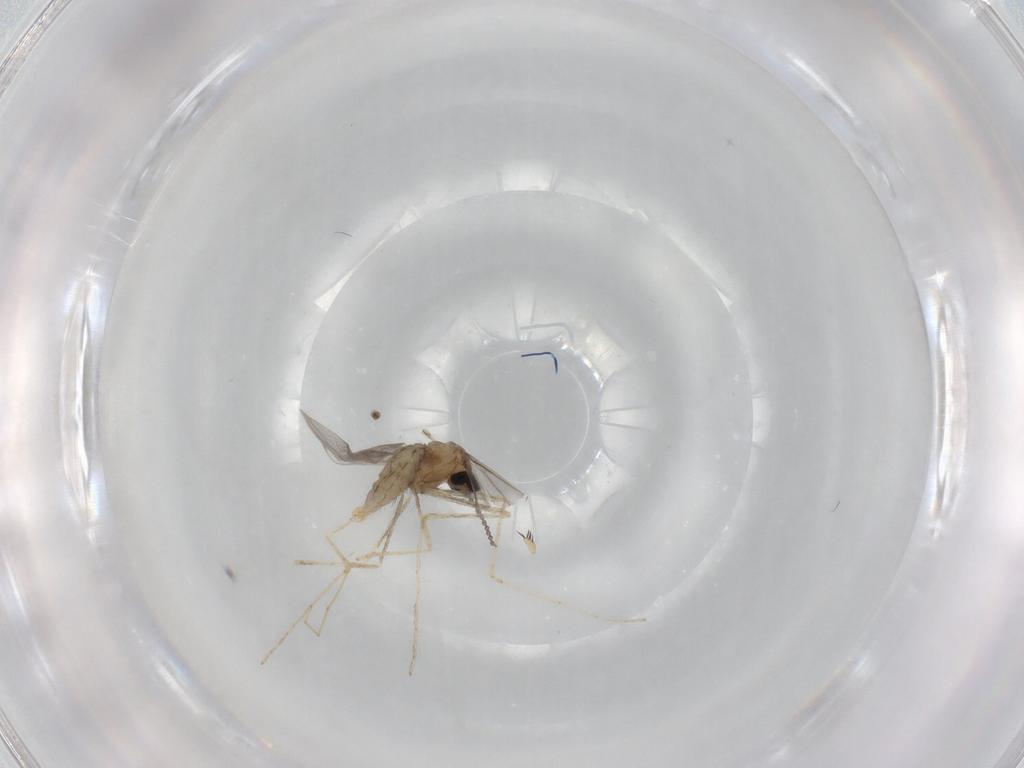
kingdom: Animalia
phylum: Arthropoda
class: Insecta
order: Diptera
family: Cecidomyiidae
